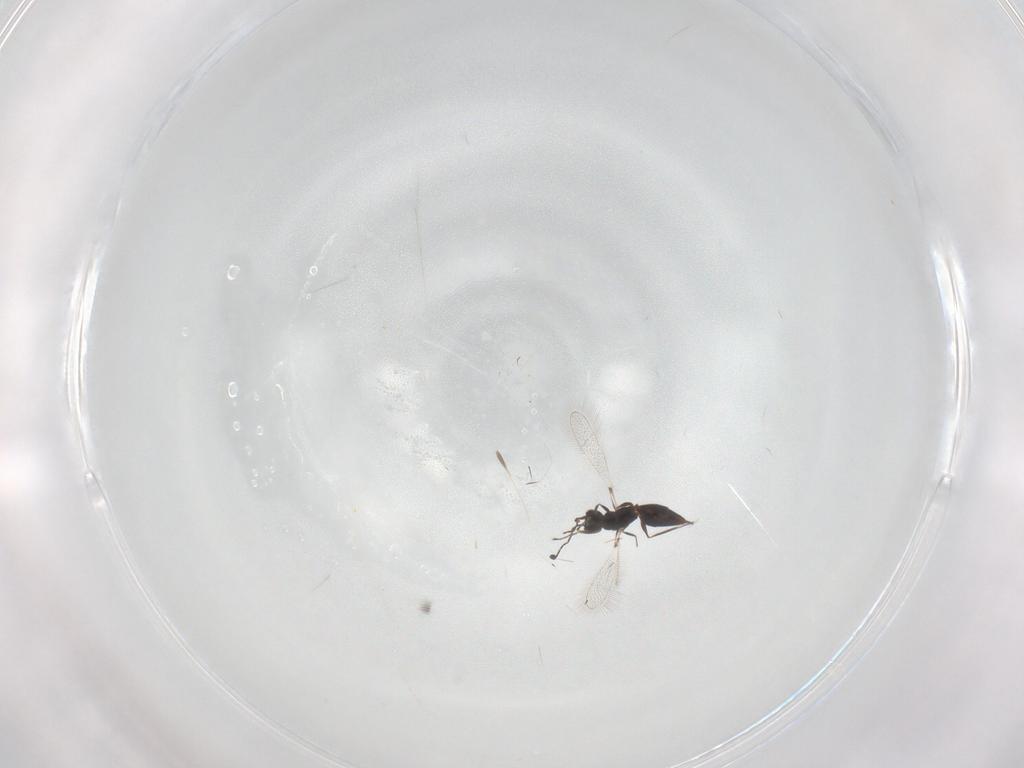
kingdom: Animalia
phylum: Arthropoda
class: Insecta
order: Hymenoptera
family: Mymaridae
